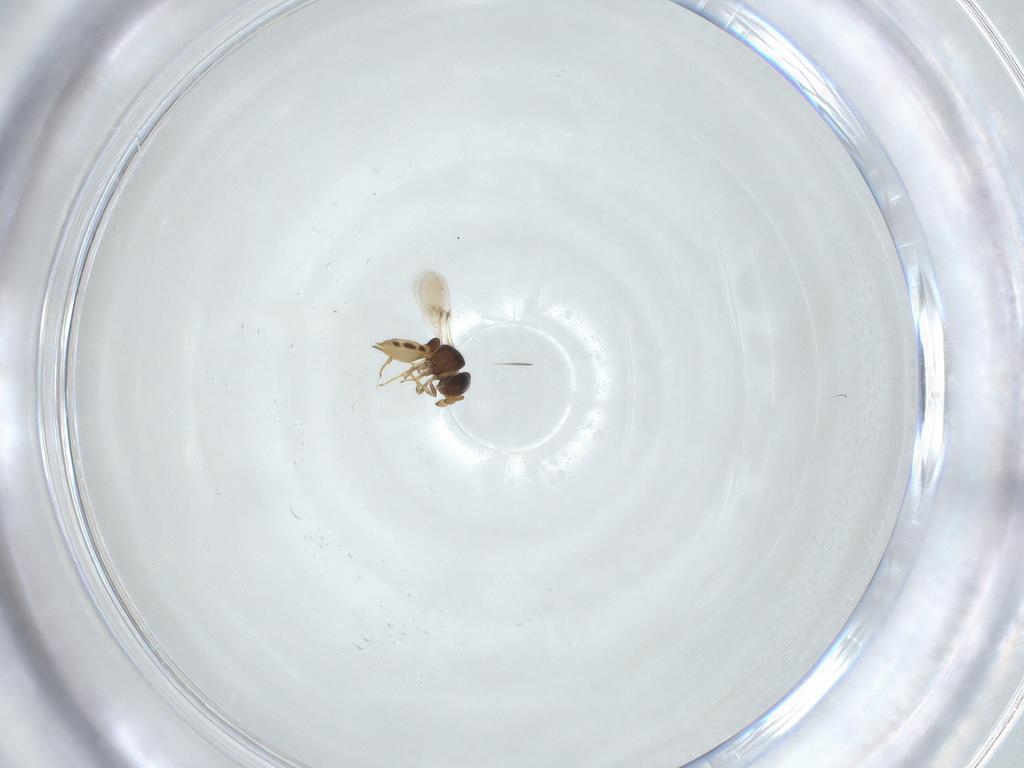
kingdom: Animalia
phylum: Arthropoda
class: Insecta
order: Hymenoptera
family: Scelionidae
